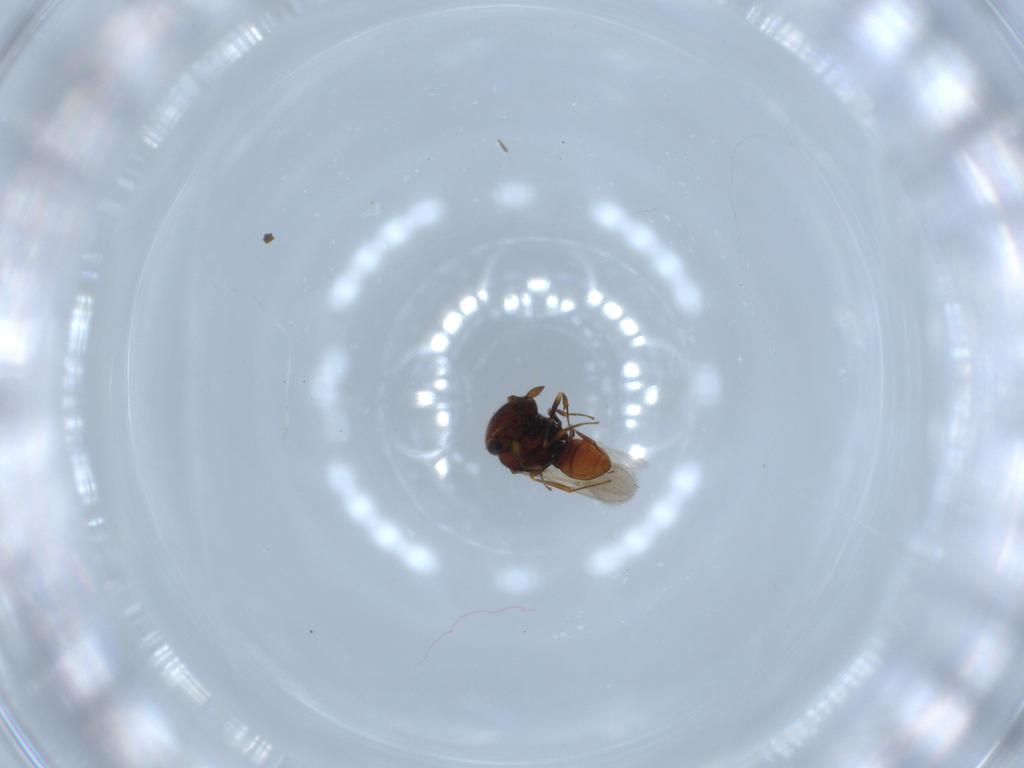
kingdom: Animalia
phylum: Arthropoda
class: Insecta
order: Hymenoptera
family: Scelionidae
